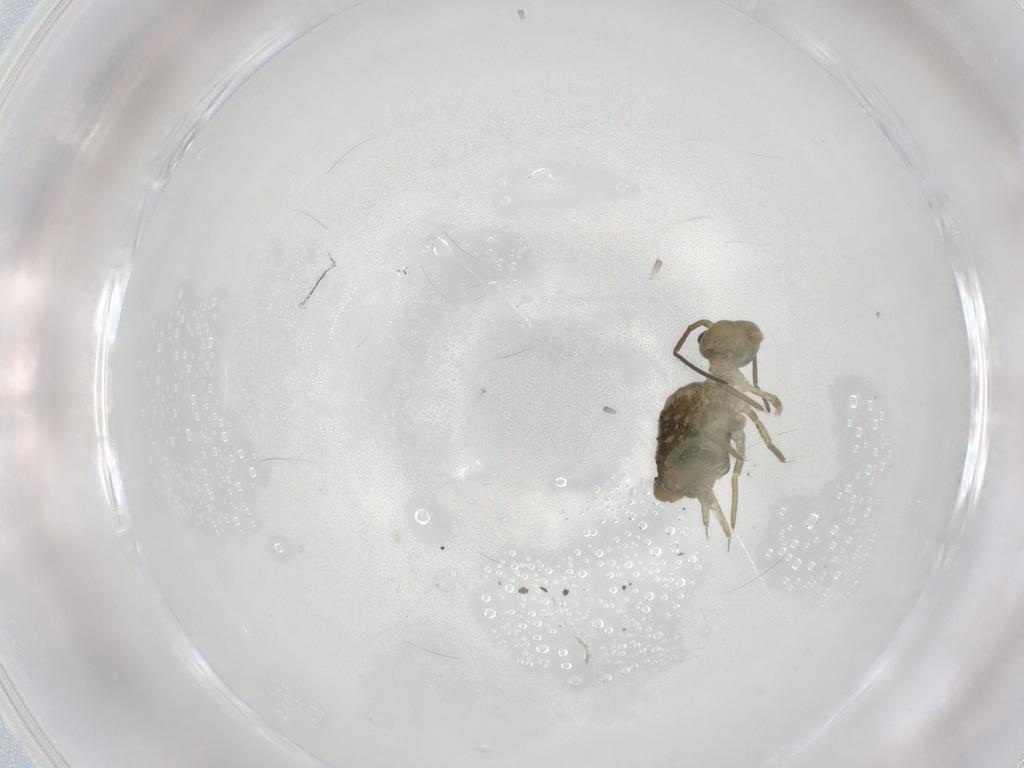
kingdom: Animalia
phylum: Arthropoda
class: Collembola
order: Symphypleona
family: Sminthuridae
